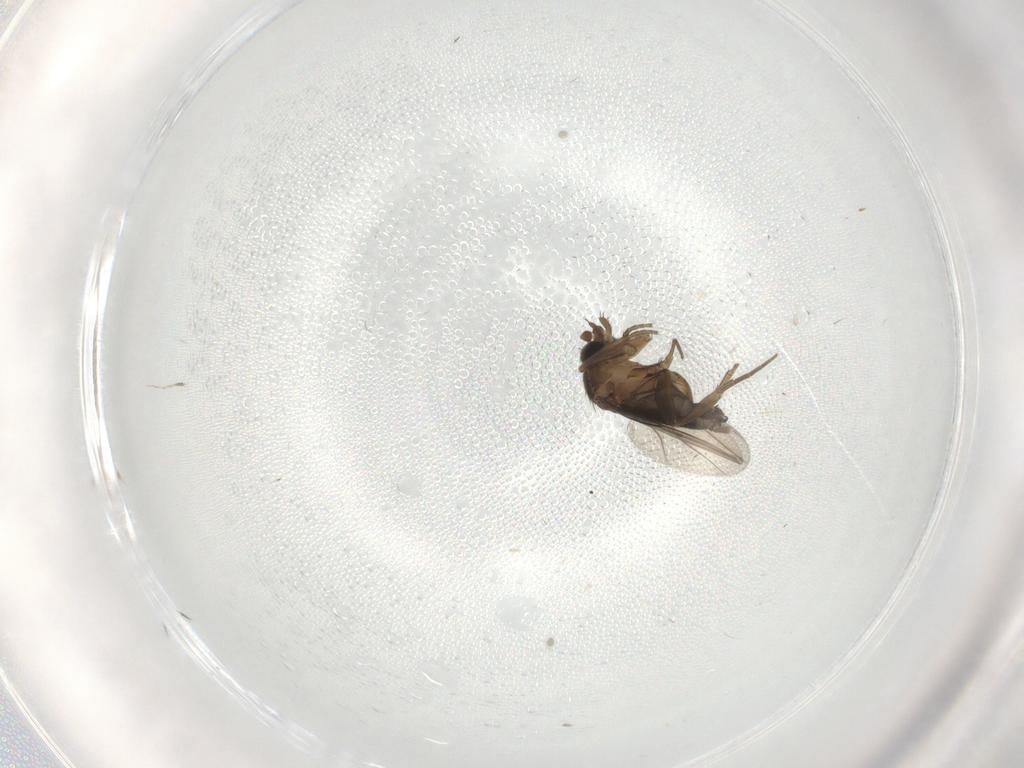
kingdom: Animalia
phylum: Arthropoda
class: Insecta
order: Diptera
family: Phoridae
